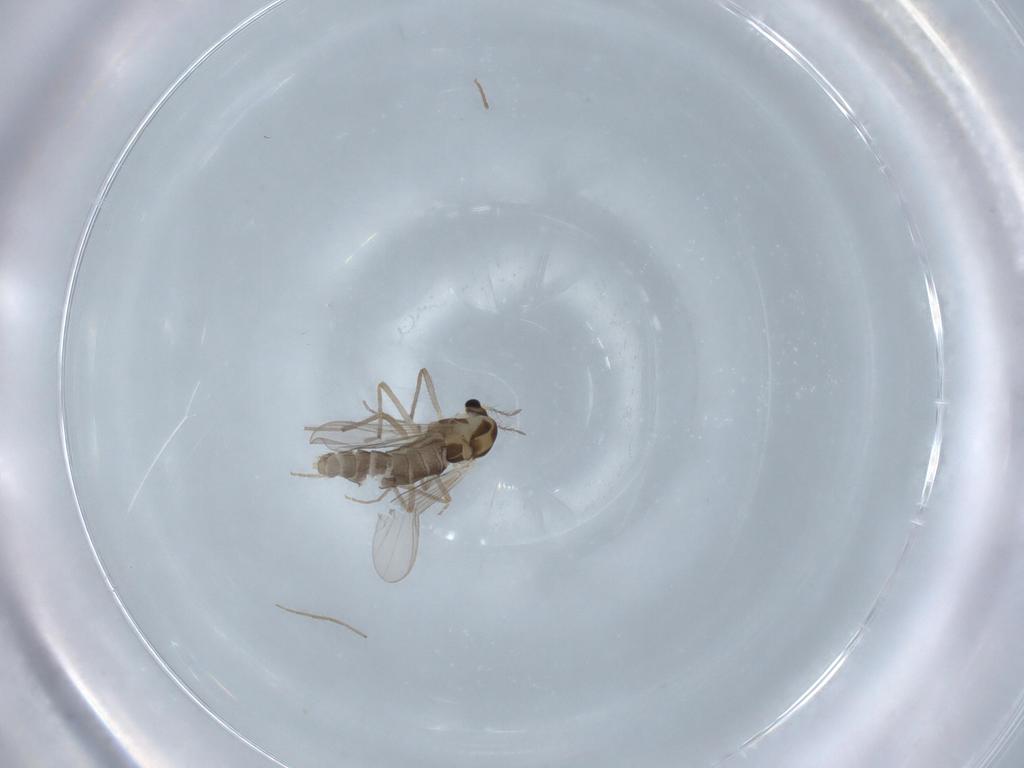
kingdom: Animalia
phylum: Arthropoda
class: Insecta
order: Diptera
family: Chironomidae
